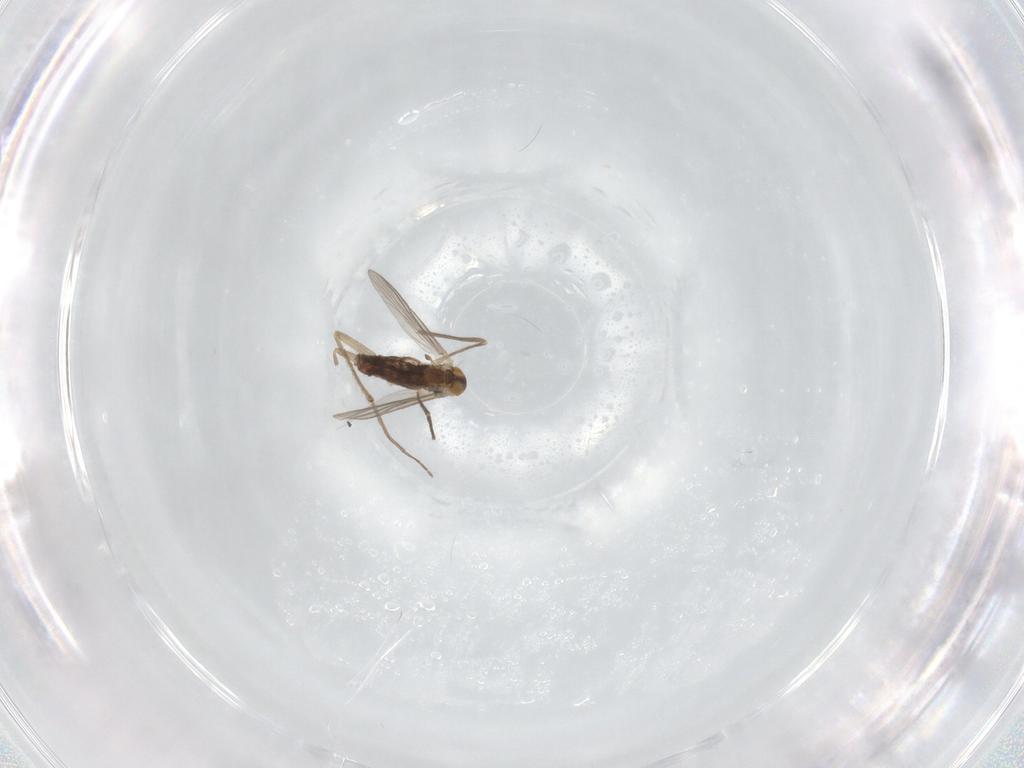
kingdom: Animalia
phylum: Arthropoda
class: Insecta
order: Diptera
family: Chironomidae
